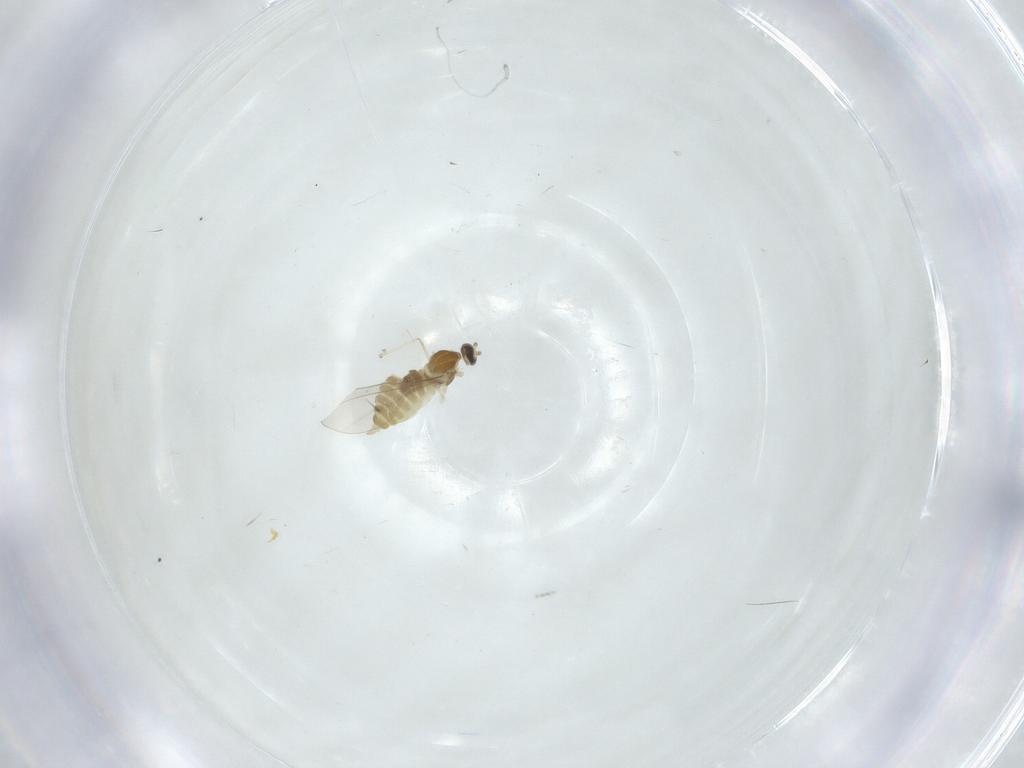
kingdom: Animalia
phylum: Arthropoda
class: Insecta
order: Diptera
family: Cecidomyiidae
